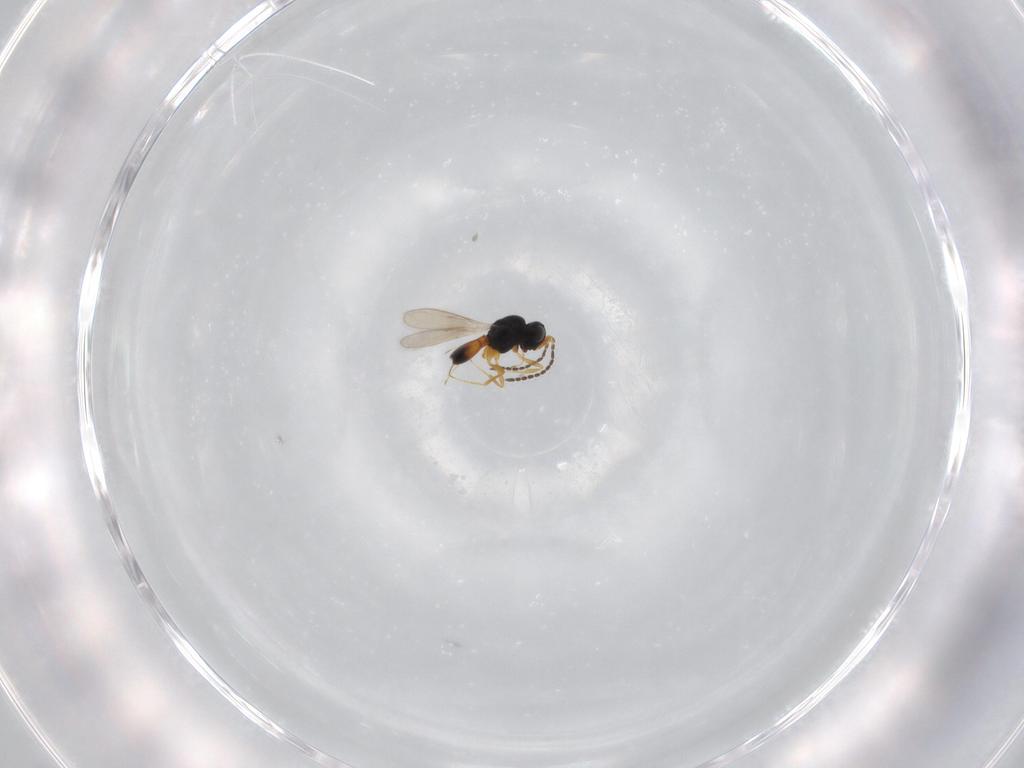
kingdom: Animalia
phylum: Arthropoda
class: Insecta
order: Hymenoptera
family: Scelionidae
